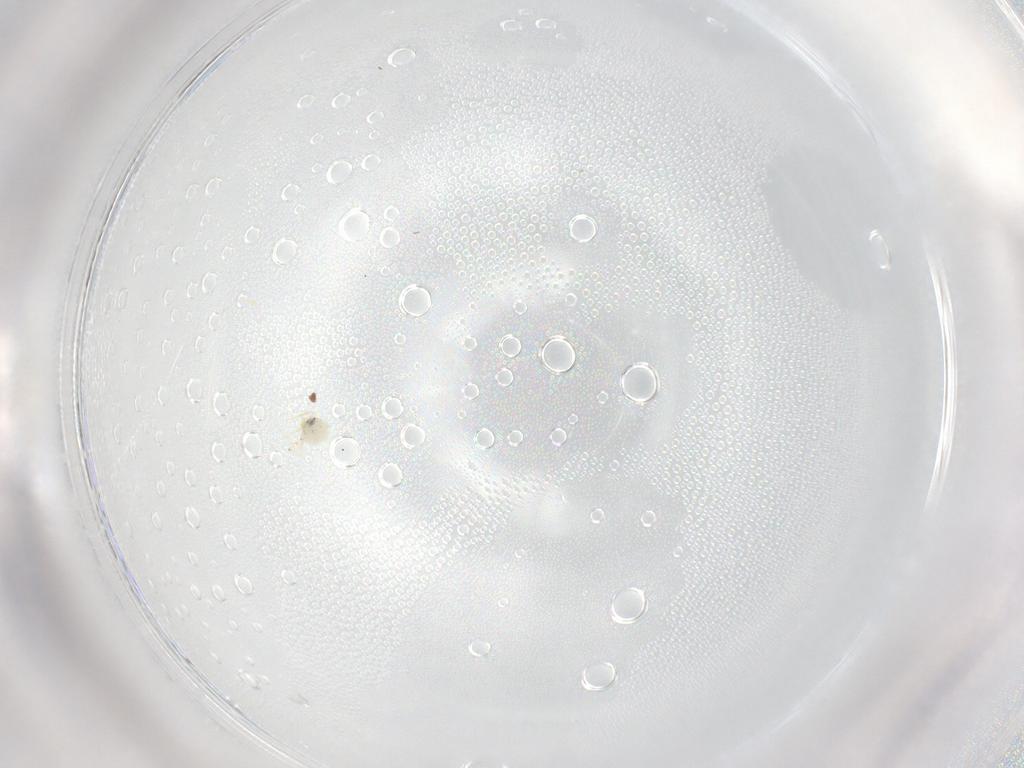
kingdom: Animalia
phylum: Arthropoda
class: Insecta
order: Hemiptera
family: Aleyrodidae
